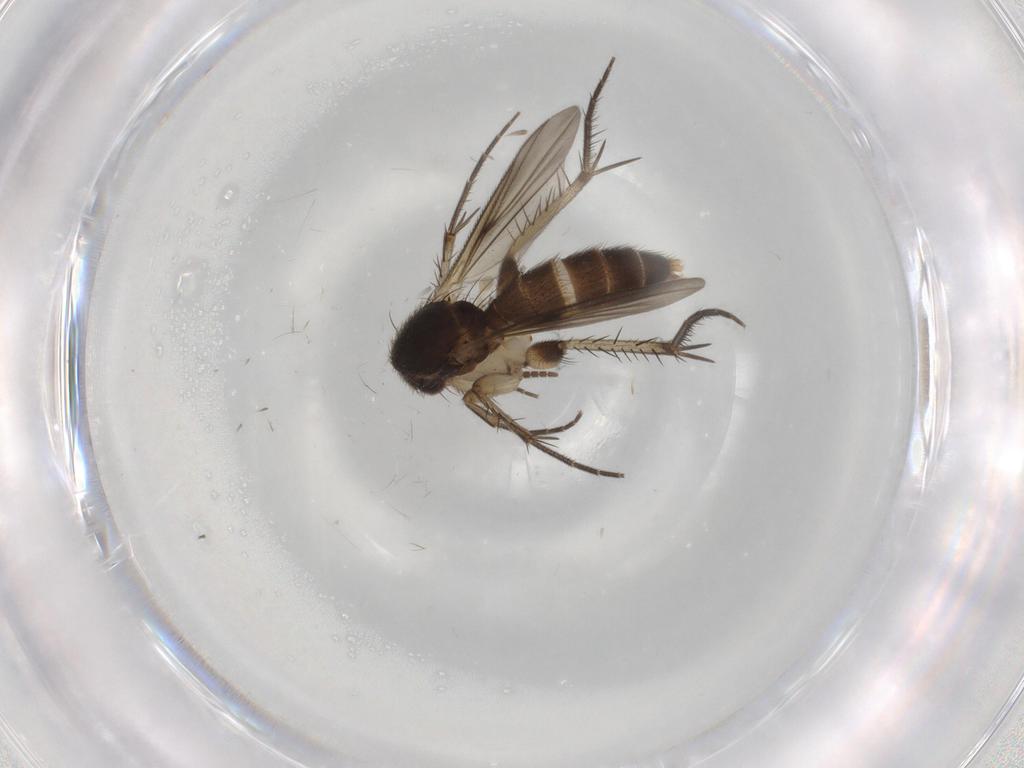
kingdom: Animalia
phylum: Arthropoda
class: Insecta
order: Diptera
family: Mycetophilidae
